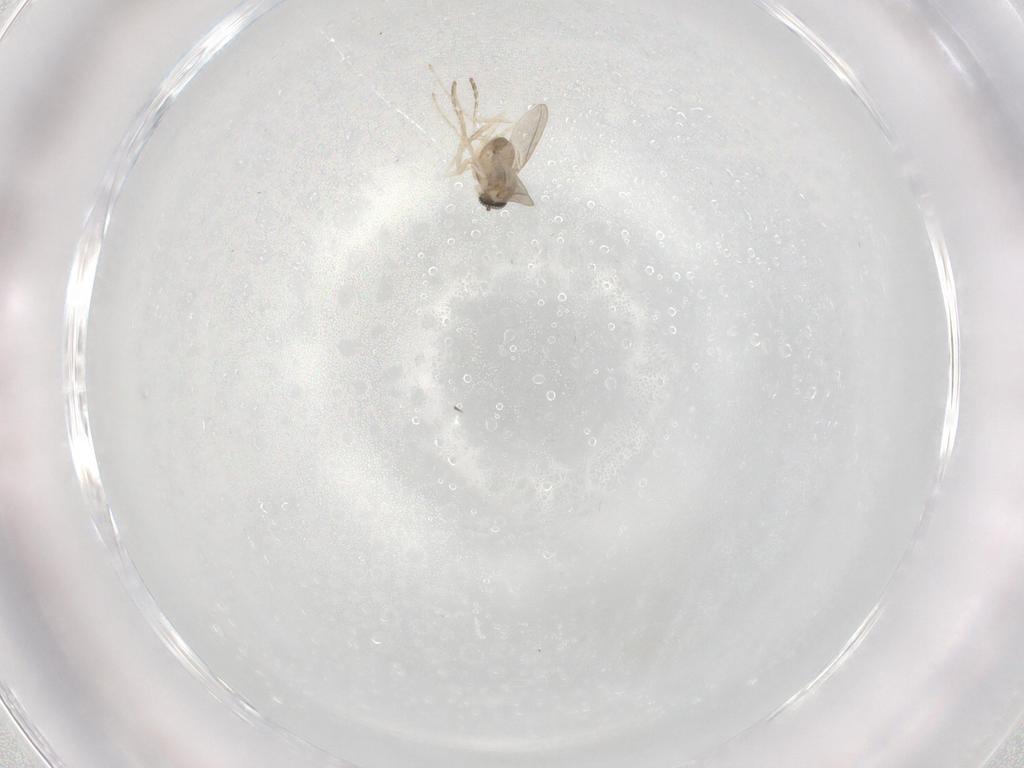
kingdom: Animalia
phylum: Arthropoda
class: Insecta
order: Diptera
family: Cecidomyiidae
